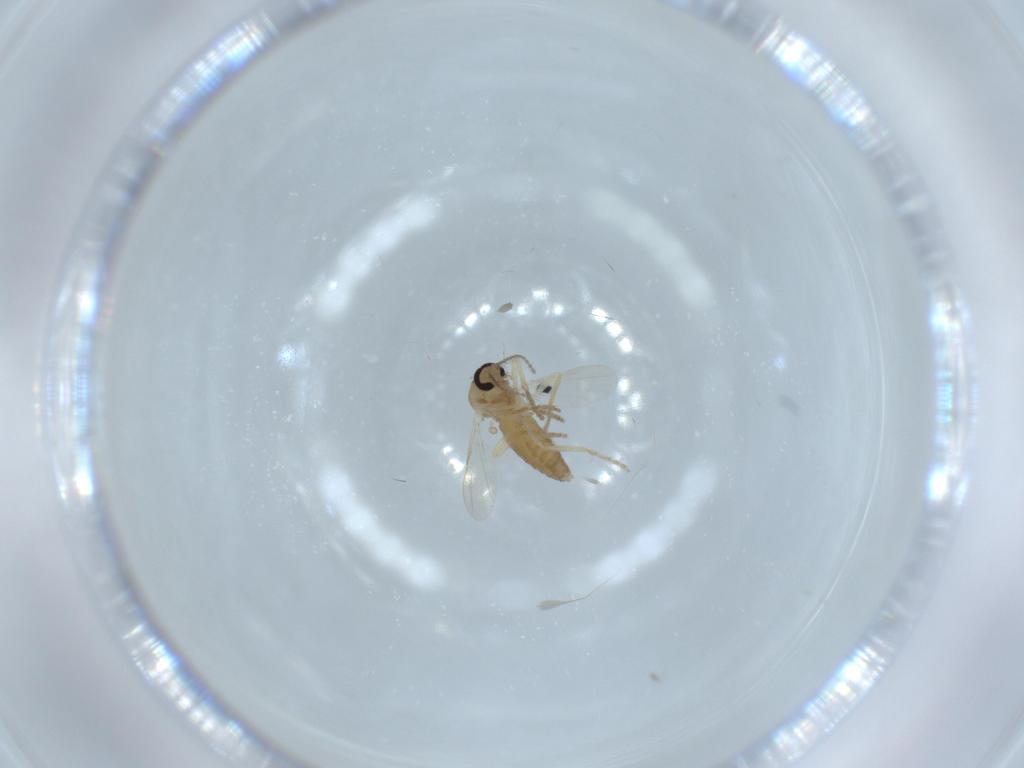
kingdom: Animalia
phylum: Arthropoda
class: Insecta
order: Diptera
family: Ceratopogonidae
